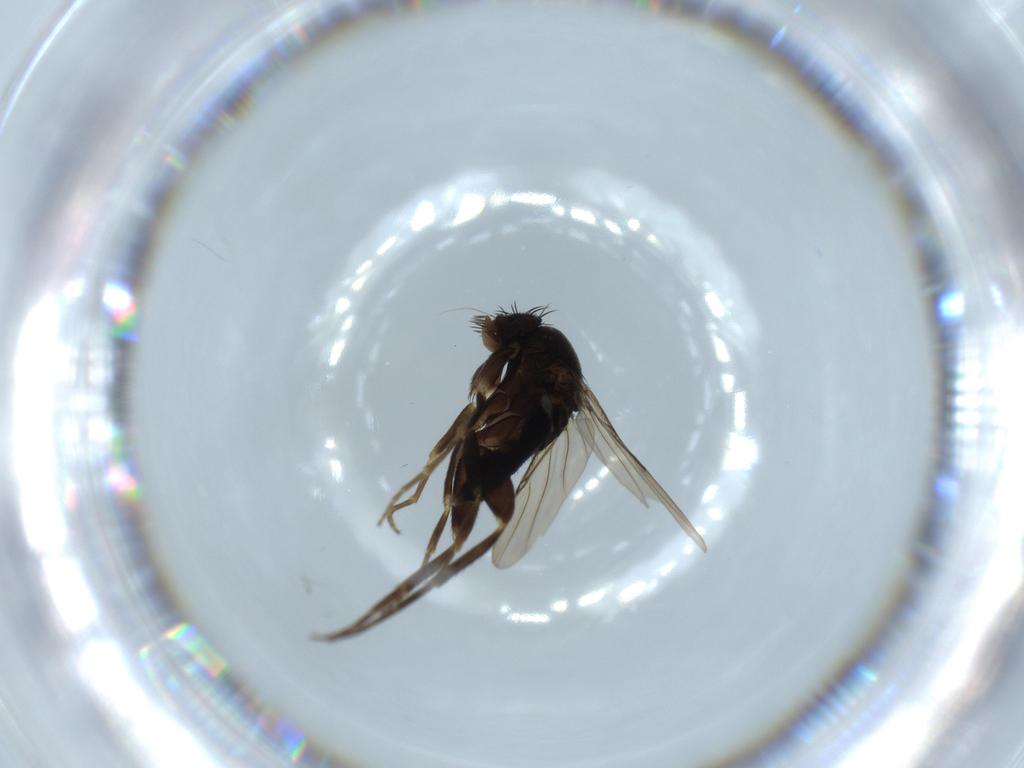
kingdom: Animalia
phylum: Arthropoda
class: Insecta
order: Diptera
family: Phoridae
